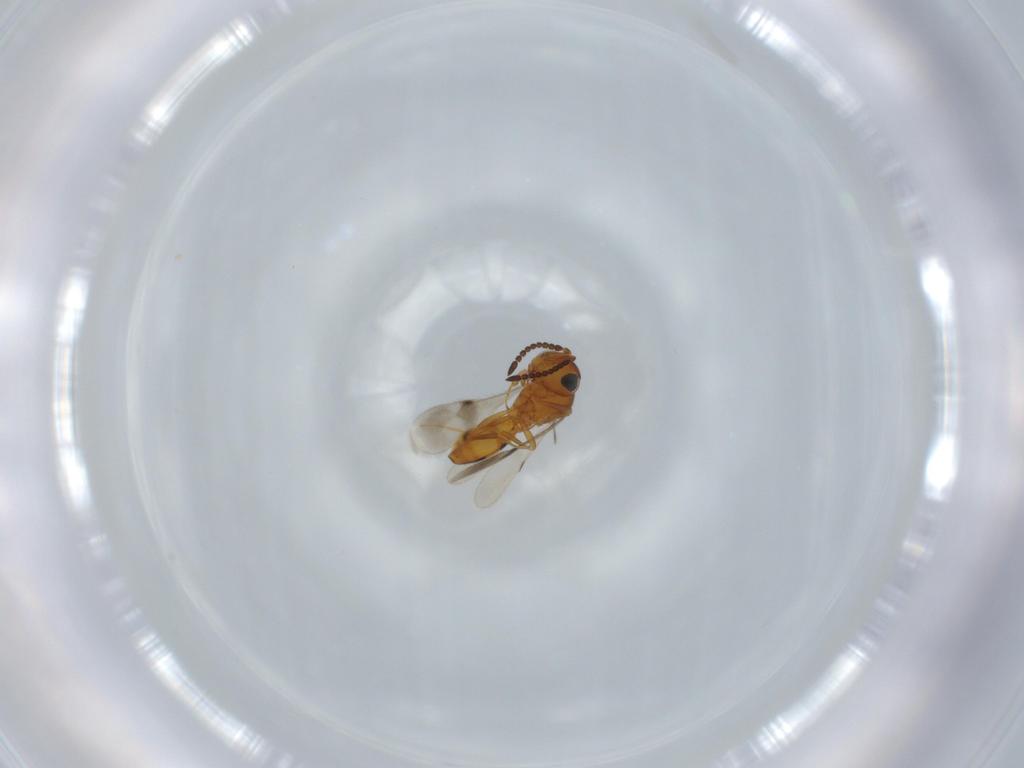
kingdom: Animalia
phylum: Arthropoda
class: Insecta
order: Hymenoptera
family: Scelionidae
